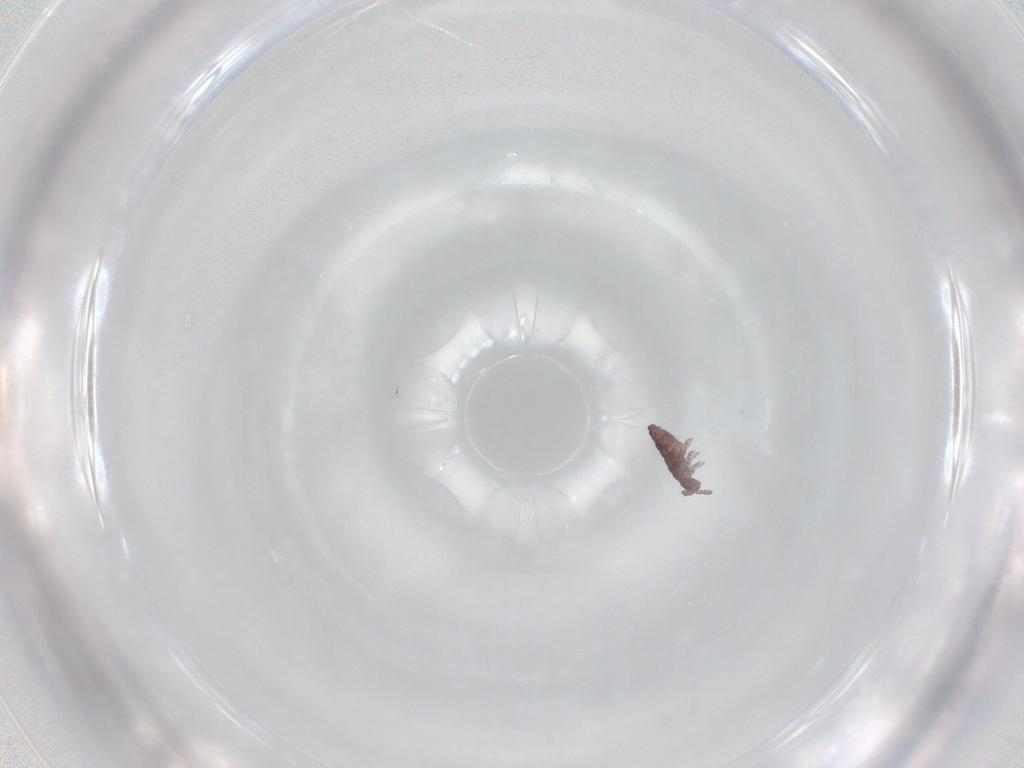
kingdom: Animalia
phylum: Arthropoda
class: Collembola
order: Poduromorpha
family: Hypogastruridae
